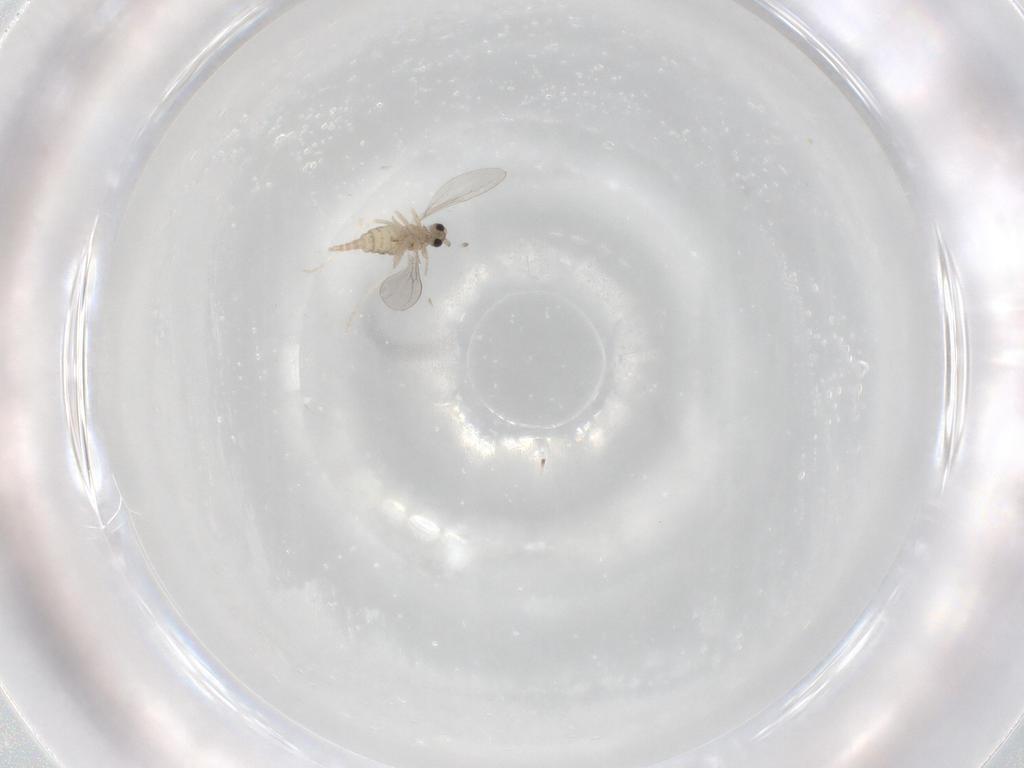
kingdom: Animalia
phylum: Arthropoda
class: Insecta
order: Diptera
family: Cecidomyiidae
